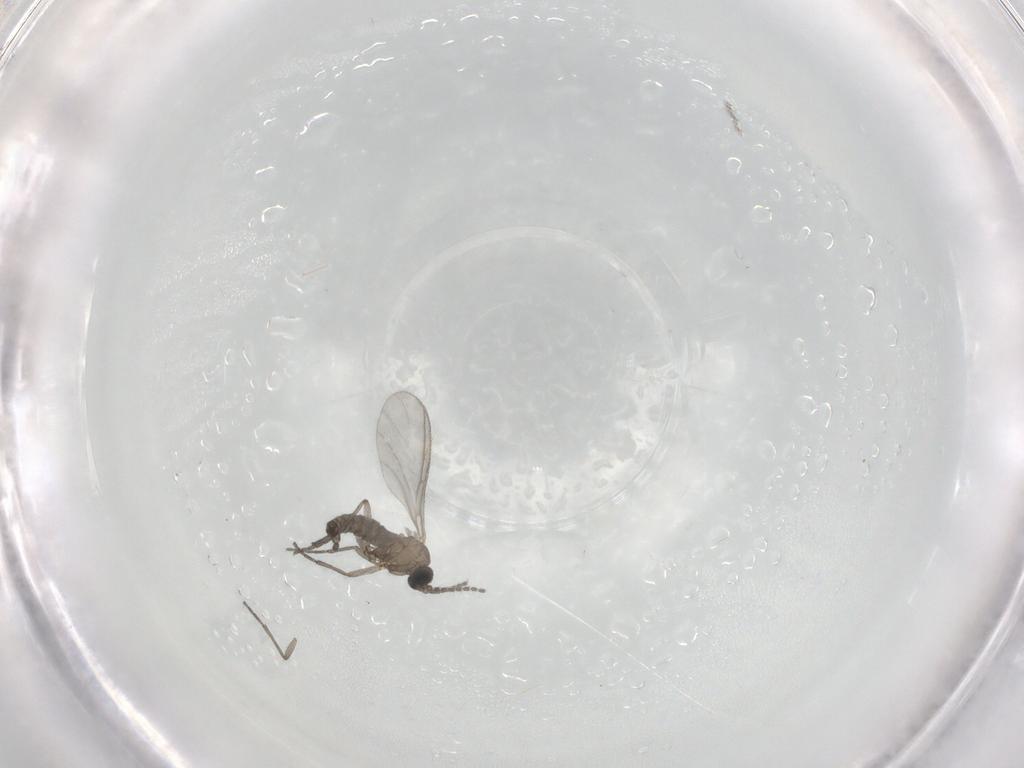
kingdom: Animalia
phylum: Arthropoda
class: Insecta
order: Diptera
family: Sciaridae
